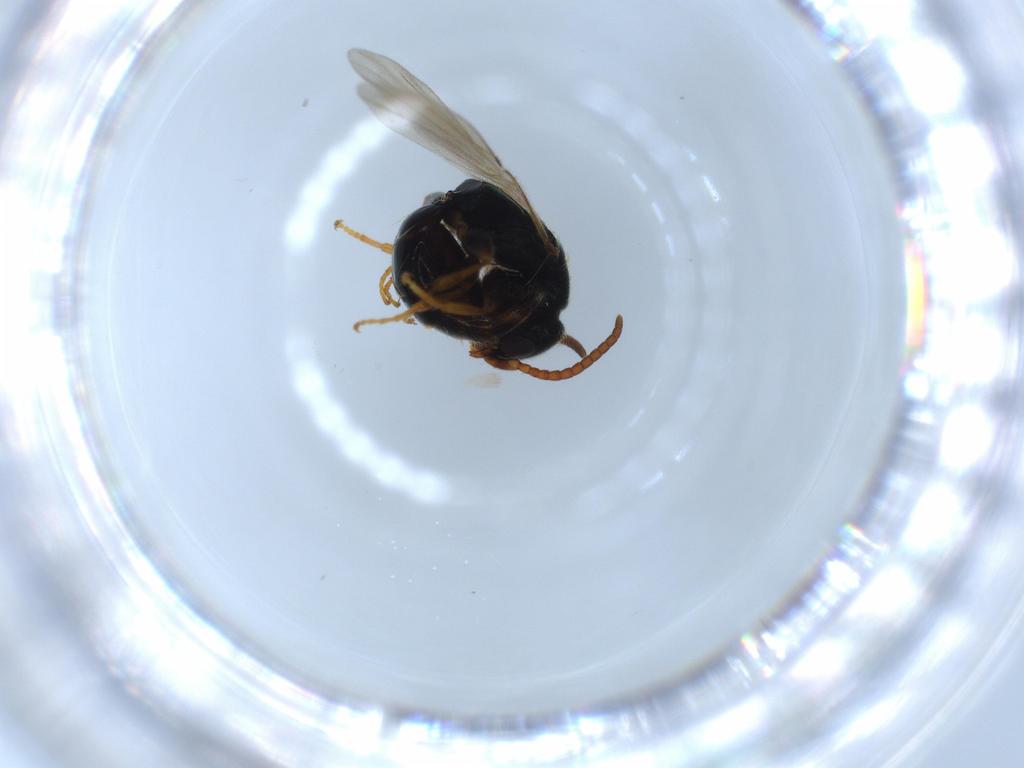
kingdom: Animalia
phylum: Arthropoda
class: Insecta
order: Hymenoptera
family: Bethylidae
